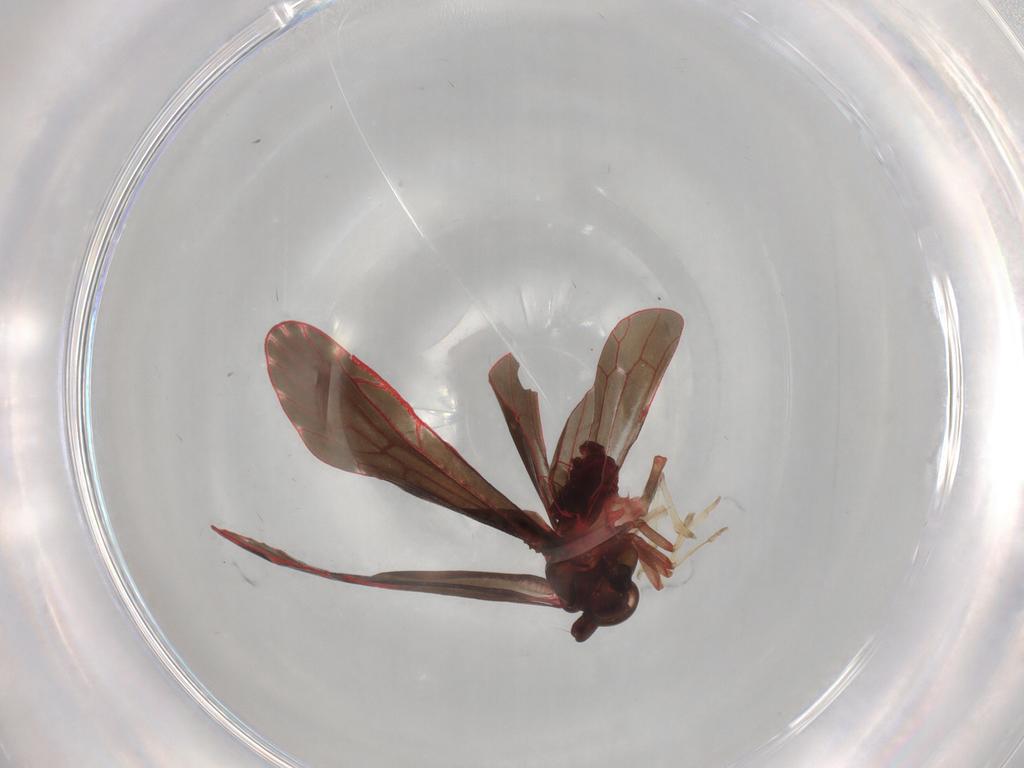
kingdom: Animalia
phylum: Arthropoda
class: Insecta
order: Hemiptera
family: Derbidae
